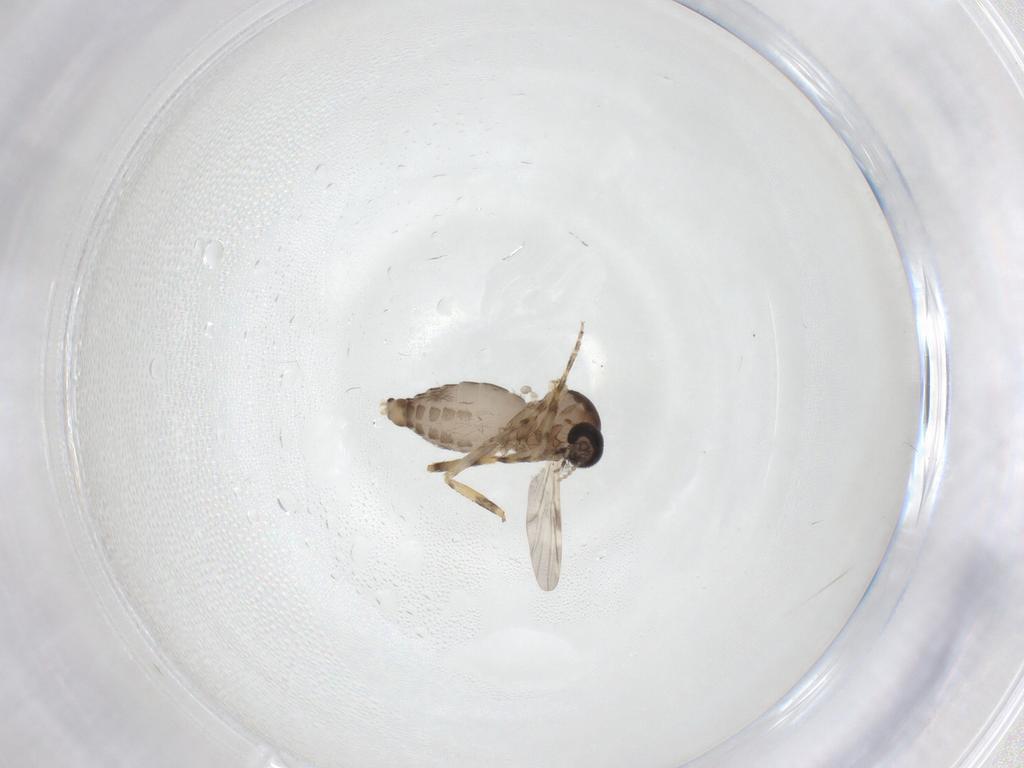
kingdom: Animalia
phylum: Arthropoda
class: Insecta
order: Diptera
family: Ceratopogonidae
